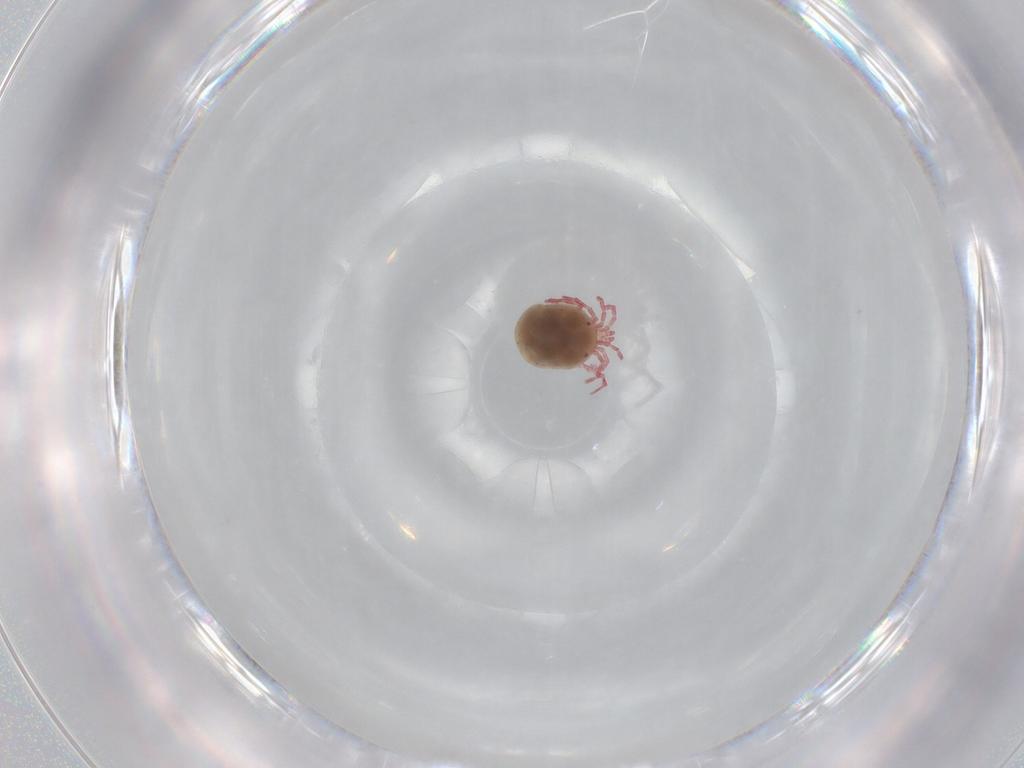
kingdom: Animalia
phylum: Arthropoda
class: Arachnida
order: Trombidiformes
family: Pionidae
